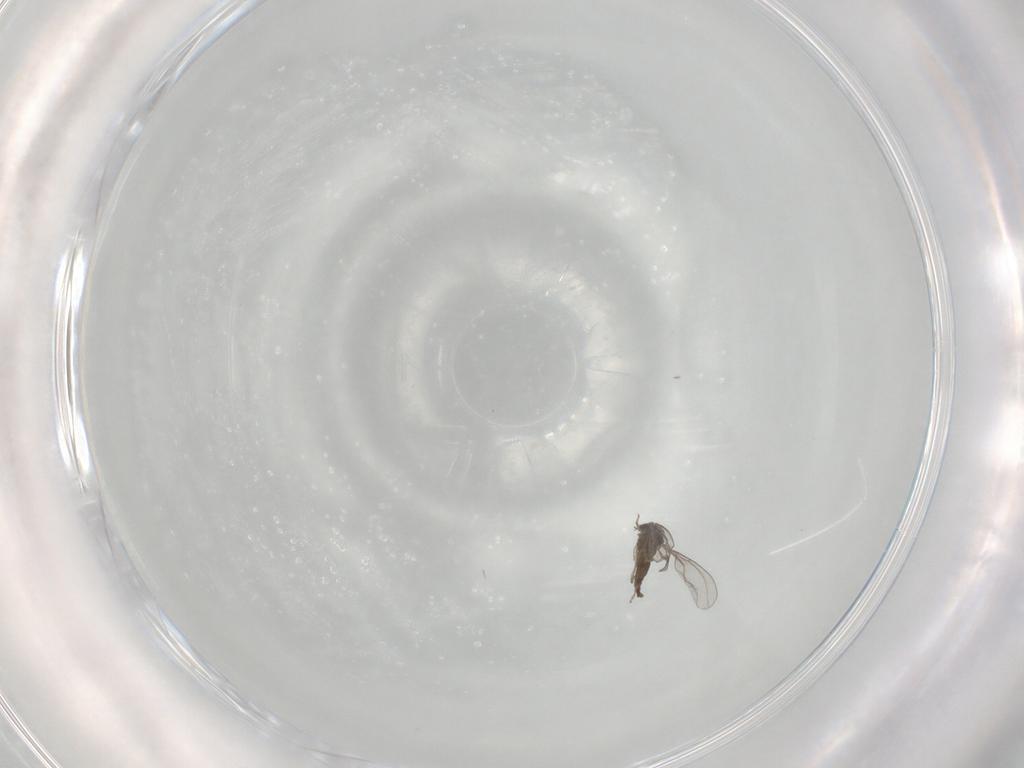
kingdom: Animalia
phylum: Arthropoda
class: Insecta
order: Diptera
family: Cecidomyiidae
